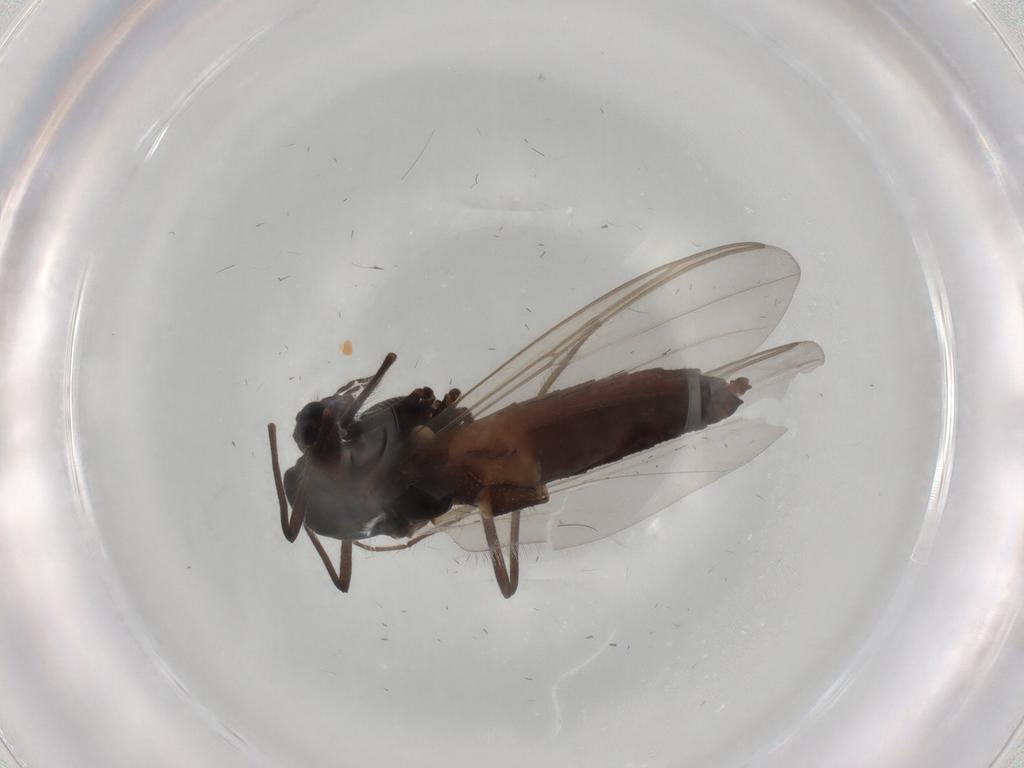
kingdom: Animalia
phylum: Arthropoda
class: Insecta
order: Diptera
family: Chironomidae
